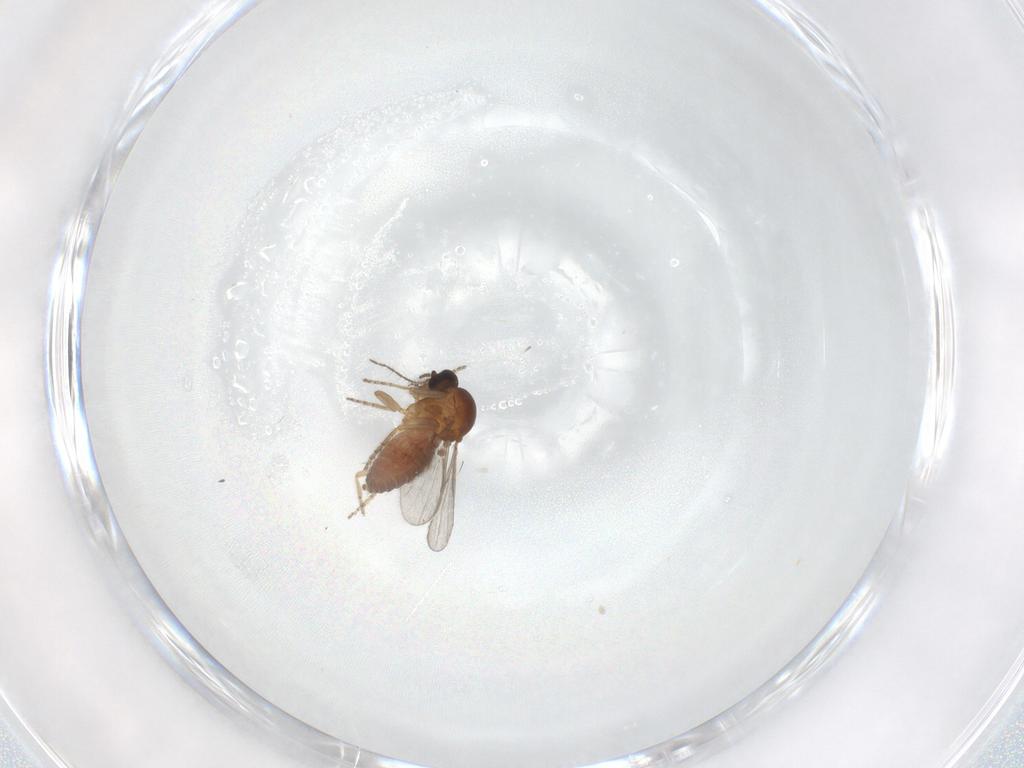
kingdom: Animalia
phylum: Arthropoda
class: Insecta
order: Diptera
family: Ceratopogonidae
